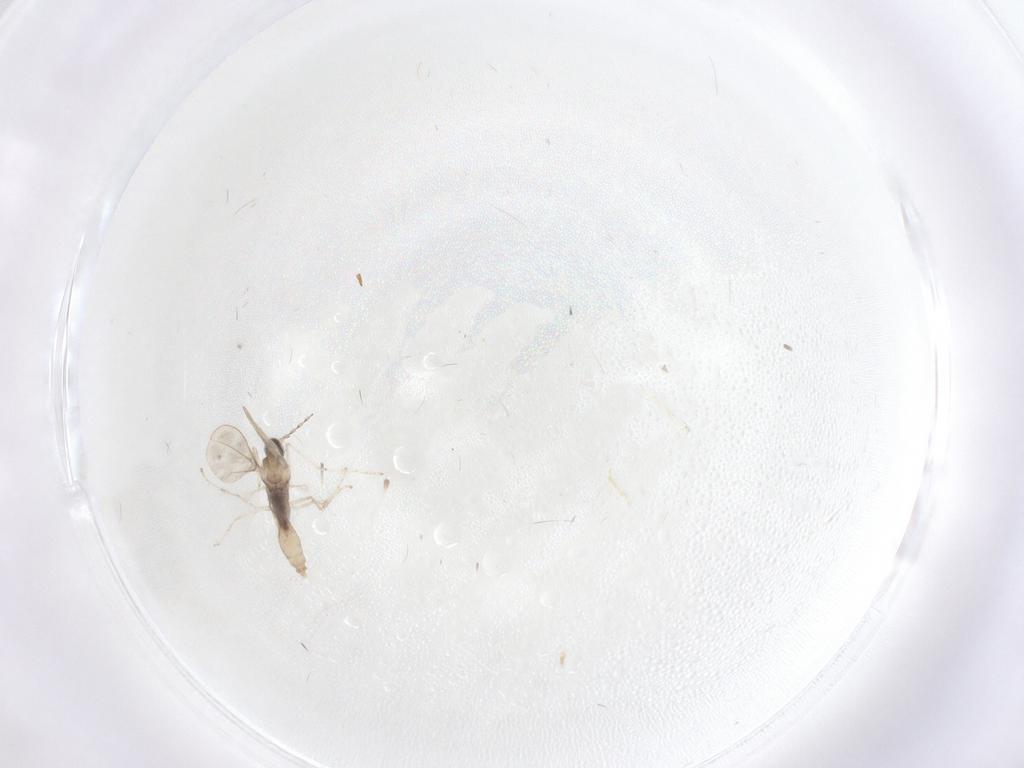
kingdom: Animalia
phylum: Arthropoda
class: Insecta
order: Diptera
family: Cecidomyiidae
